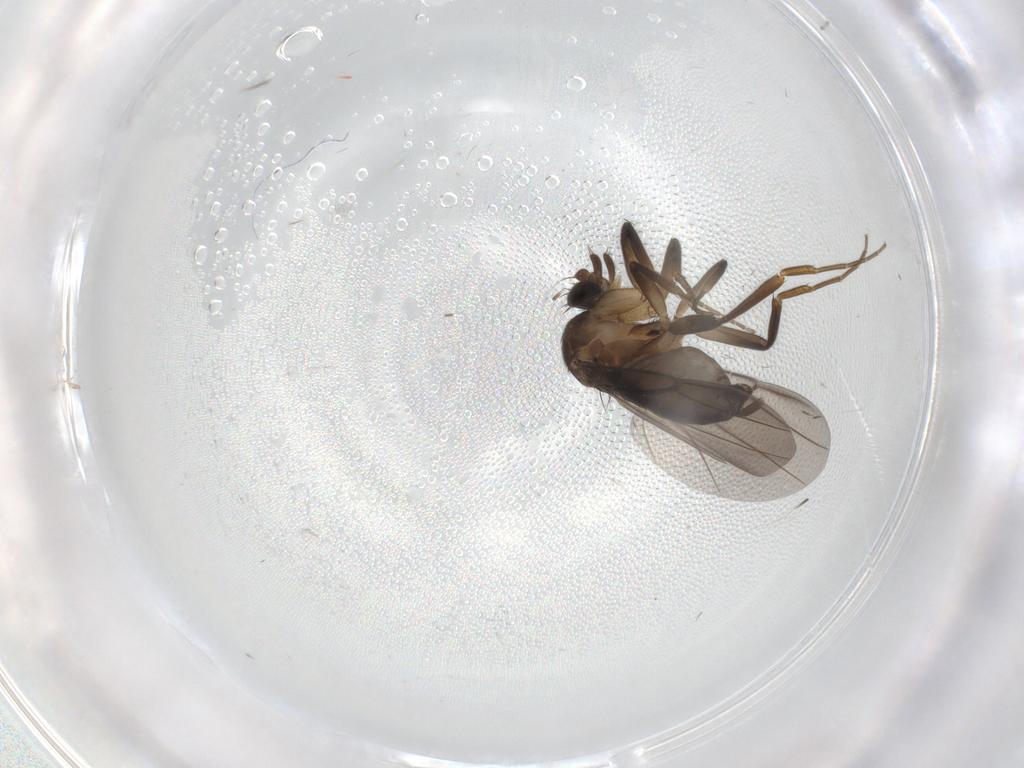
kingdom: Animalia
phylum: Arthropoda
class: Insecta
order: Diptera
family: Phoridae
